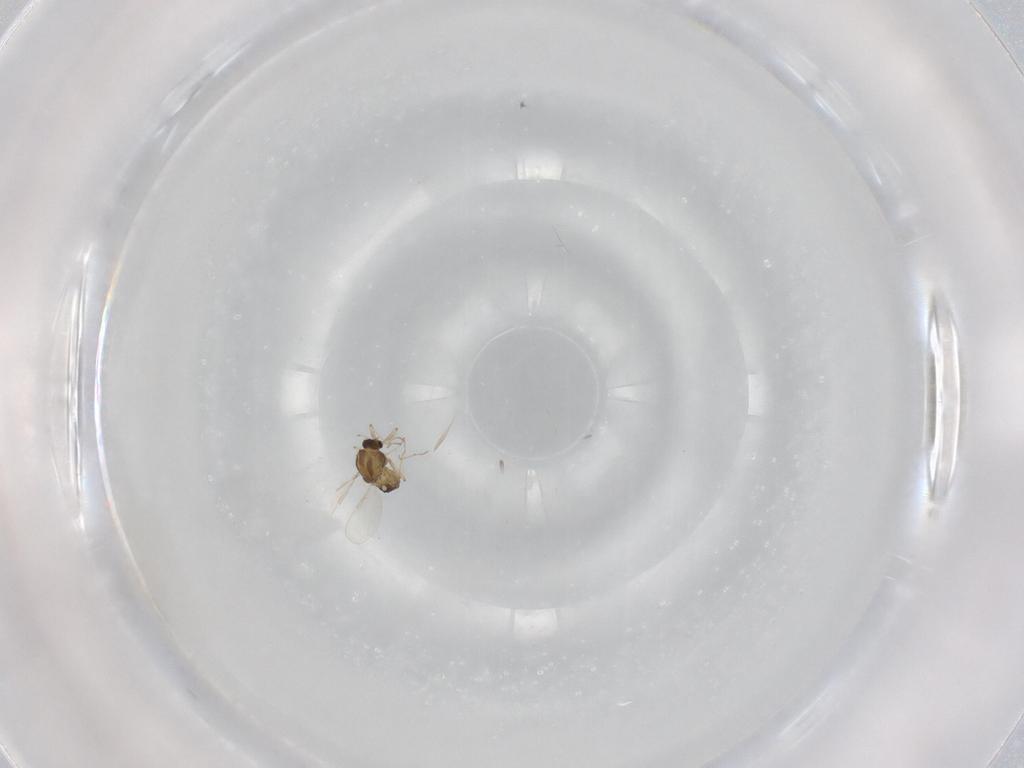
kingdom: Animalia
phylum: Arthropoda
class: Insecta
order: Diptera
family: Chironomidae
